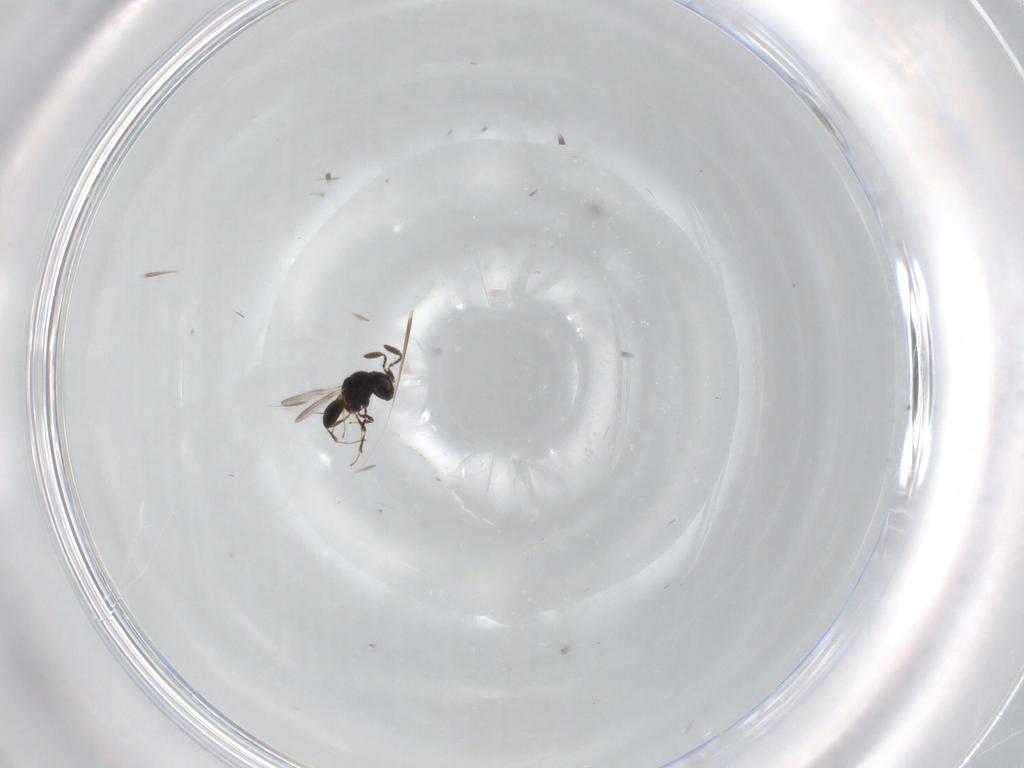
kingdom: Animalia
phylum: Arthropoda
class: Insecta
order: Hymenoptera
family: Scelionidae
